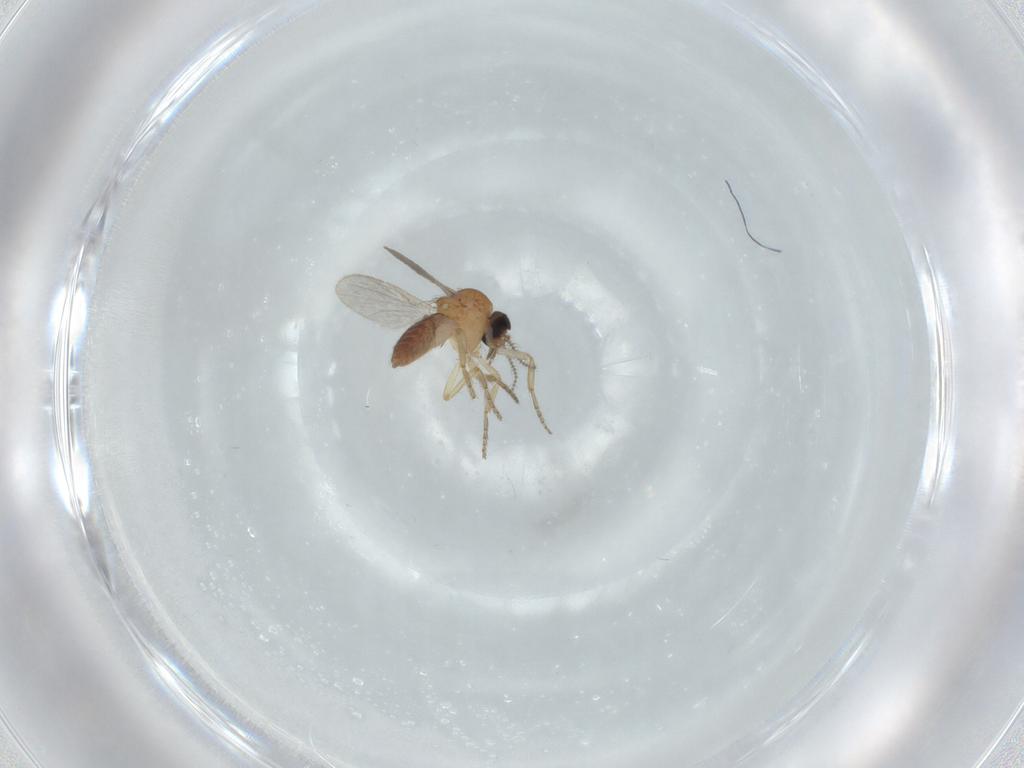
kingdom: Animalia
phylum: Arthropoda
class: Insecta
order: Diptera
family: Ceratopogonidae
